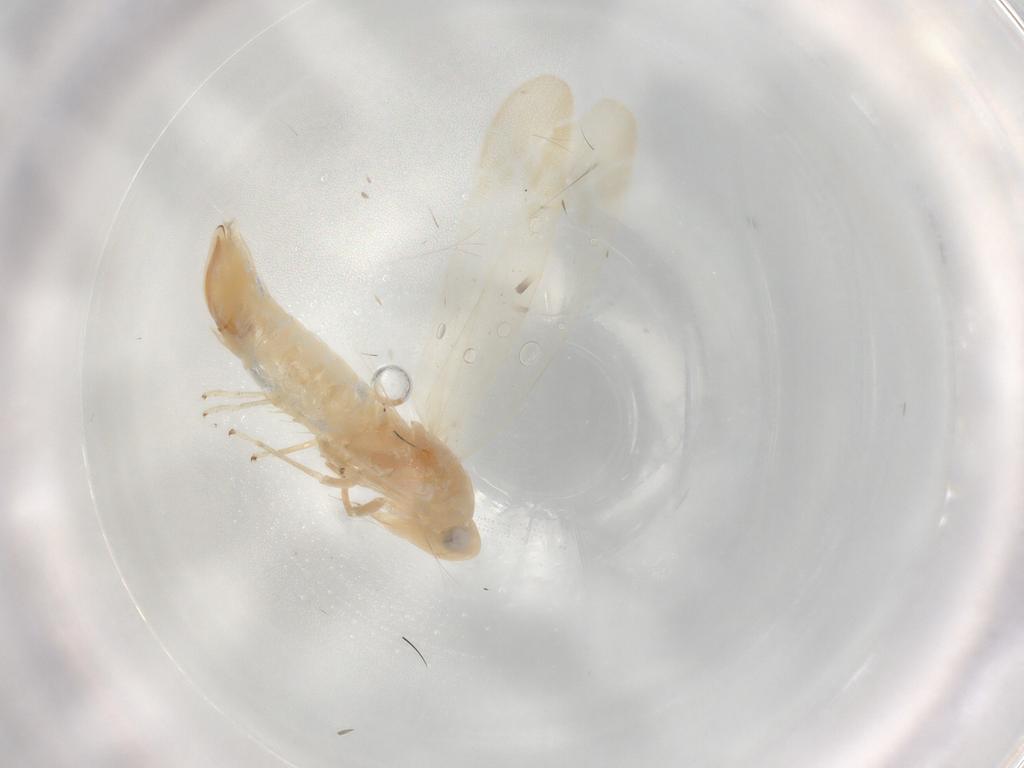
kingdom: Animalia
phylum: Arthropoda
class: Insecta
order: Hemiptera
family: Cicadellidae
